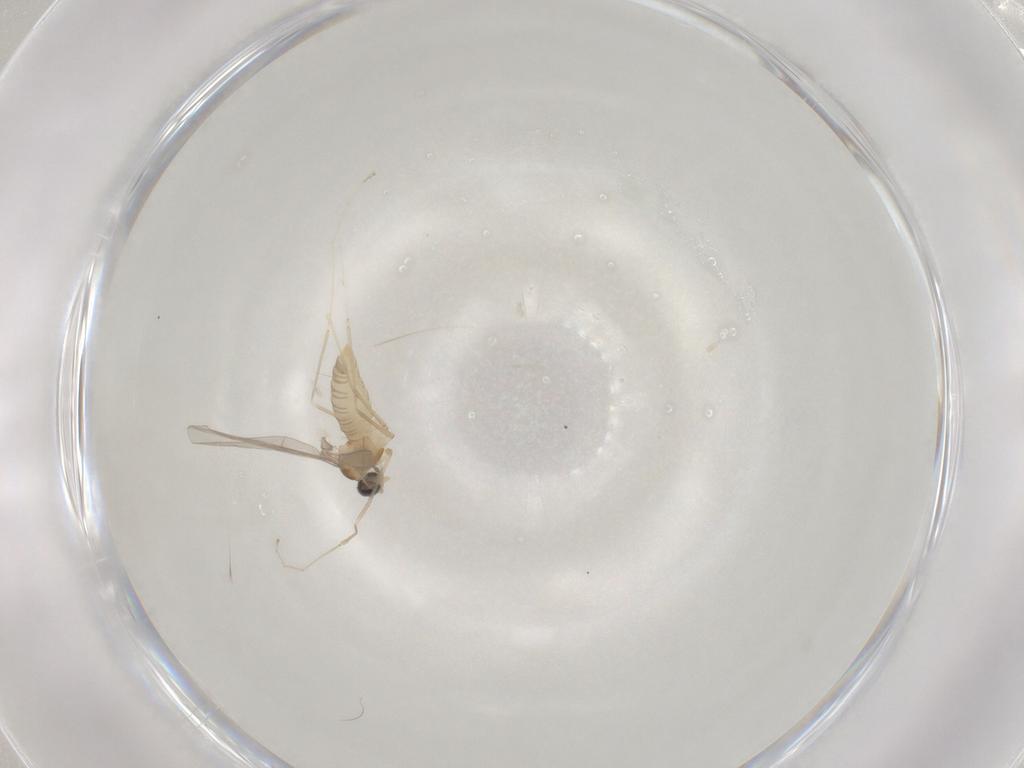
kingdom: Animalia
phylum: Arthropoda
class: Insecta
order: Diptera
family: Cecidomyiidae
